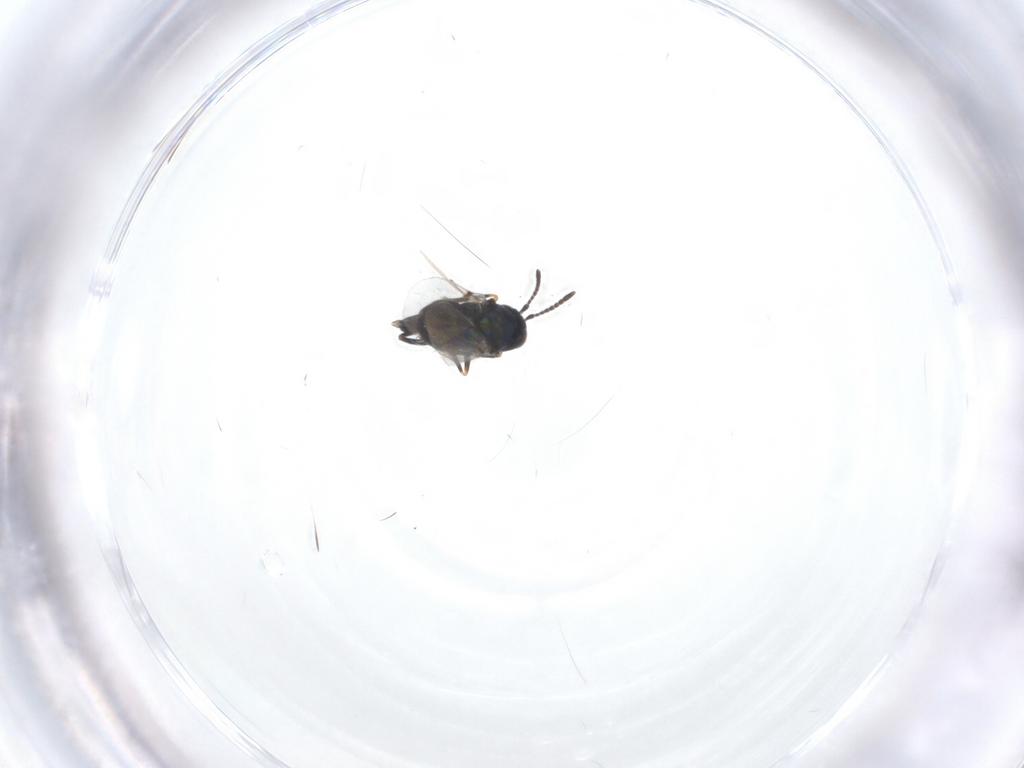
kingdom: Animalia
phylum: Arthropoda
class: Insecta
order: Hymenoptera
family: Encyrtidae
